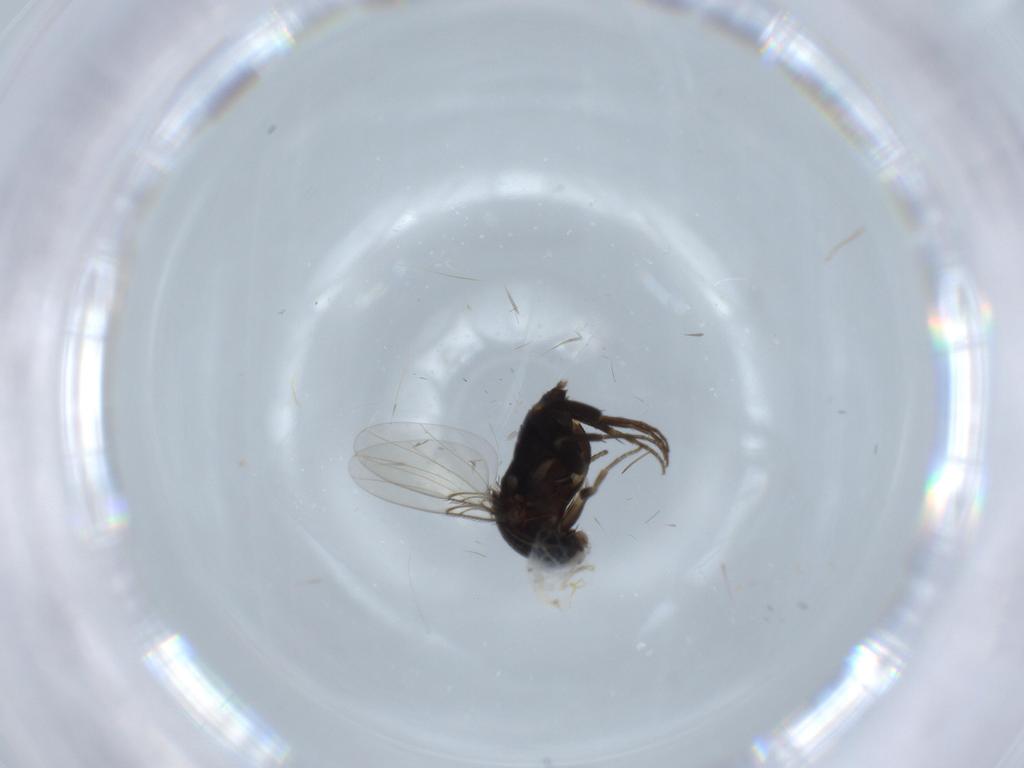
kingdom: Animalia
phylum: Arthropoda
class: Insecta
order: Diptera
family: Phoridae
